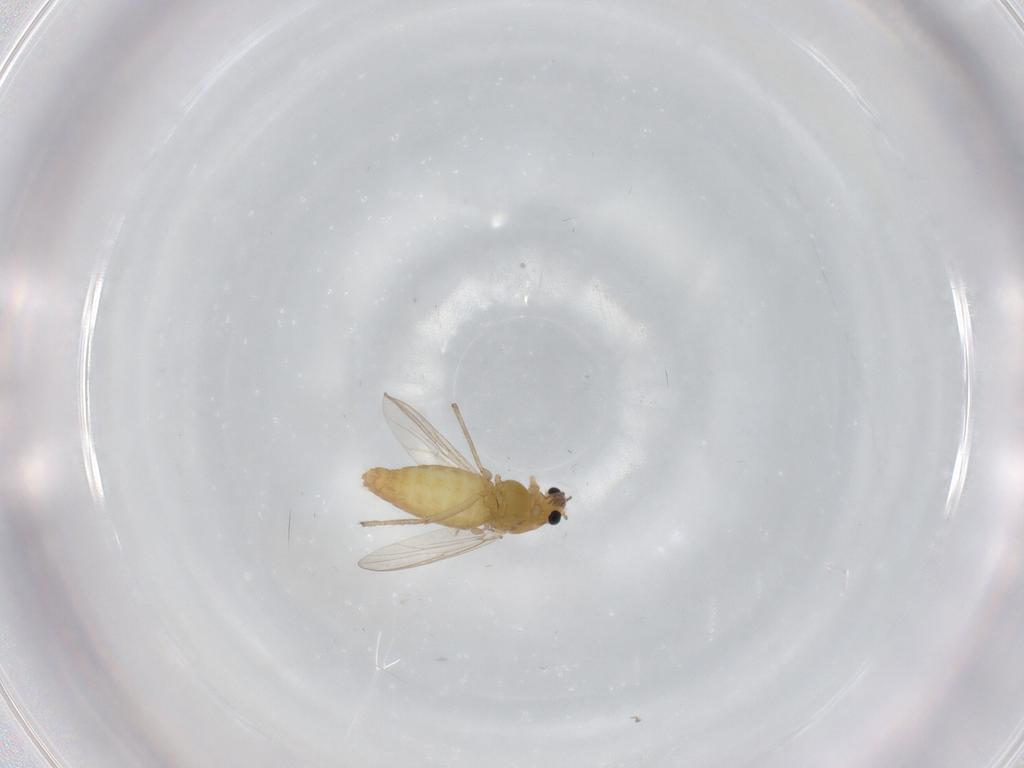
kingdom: Animalia
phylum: Arthropoda
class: Insecta
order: Diptera
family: Chironomidae
